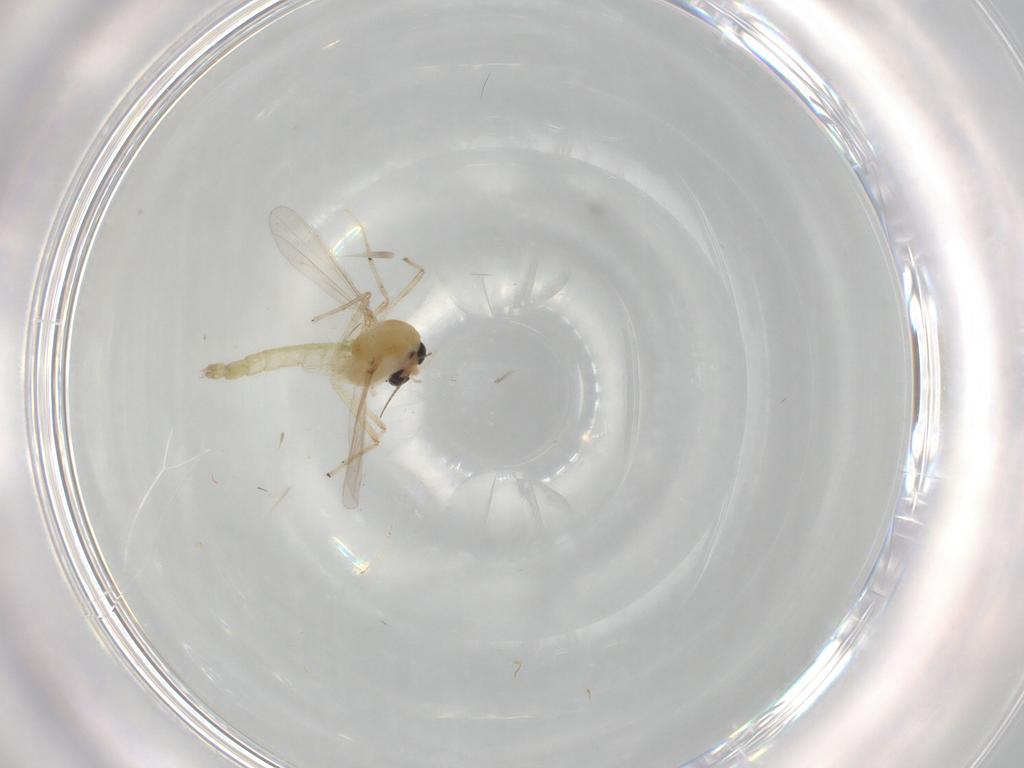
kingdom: Animalia
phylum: Arthropoda
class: Insecta
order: Diptera
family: Chironomidae
